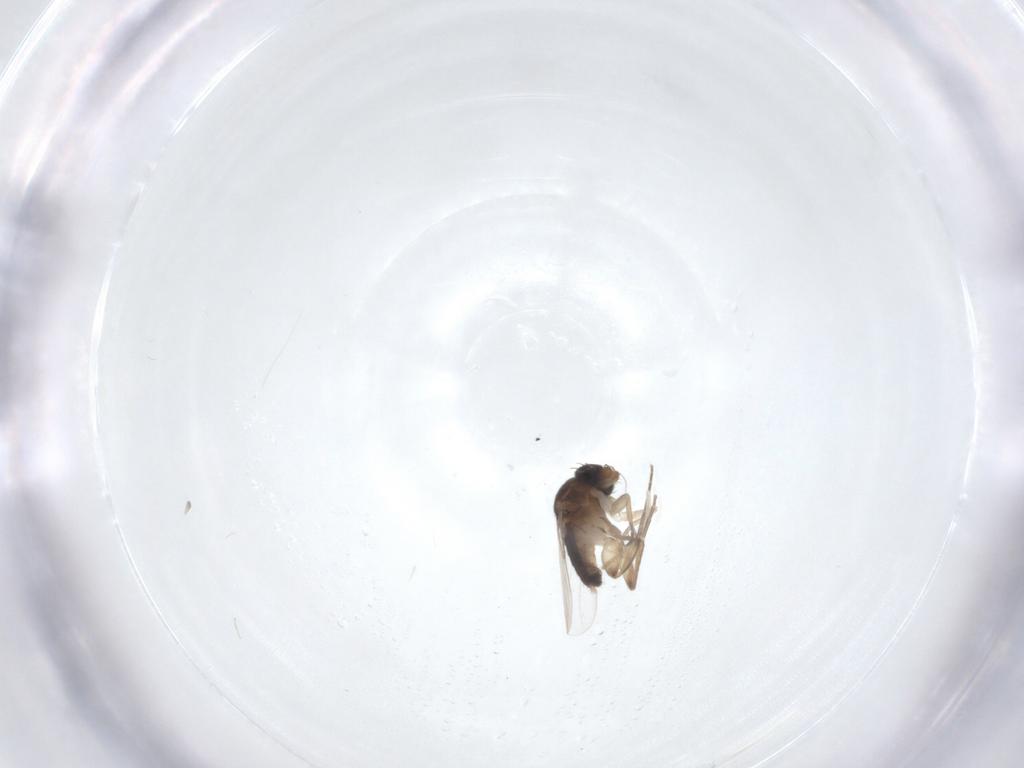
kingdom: Animalia
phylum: Arthropoda
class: Insecta
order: Diptera
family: Phoridae
